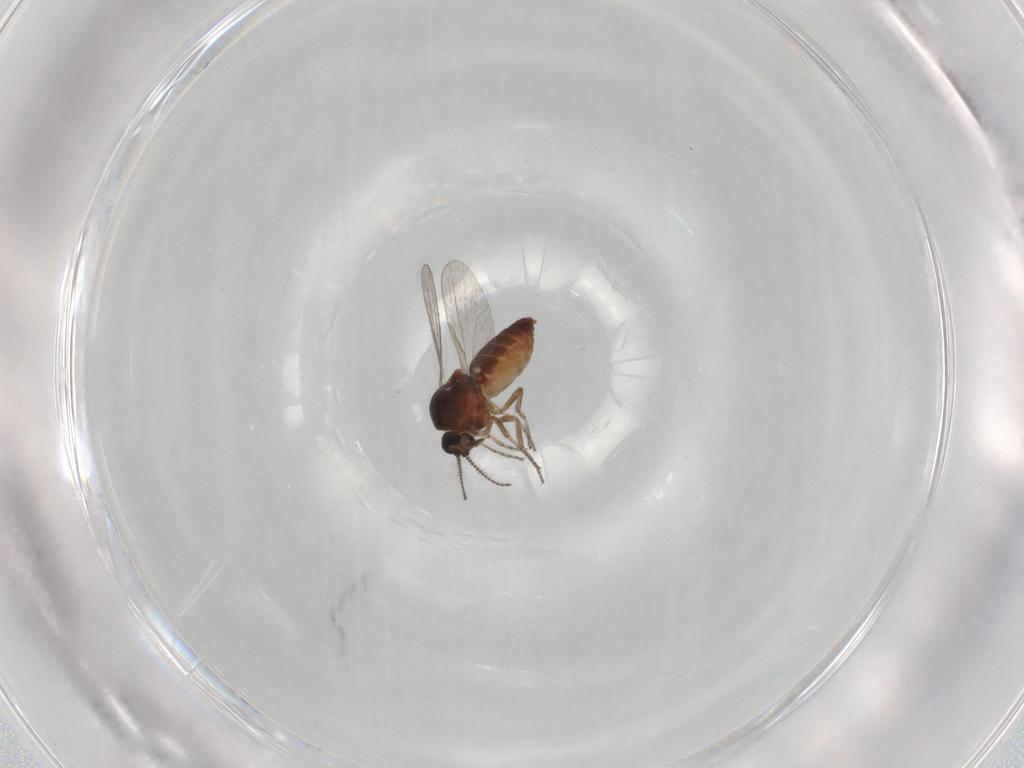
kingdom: Animalia
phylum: Arthropoda
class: Insecta
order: Diptera
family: Ceratopogonidae
